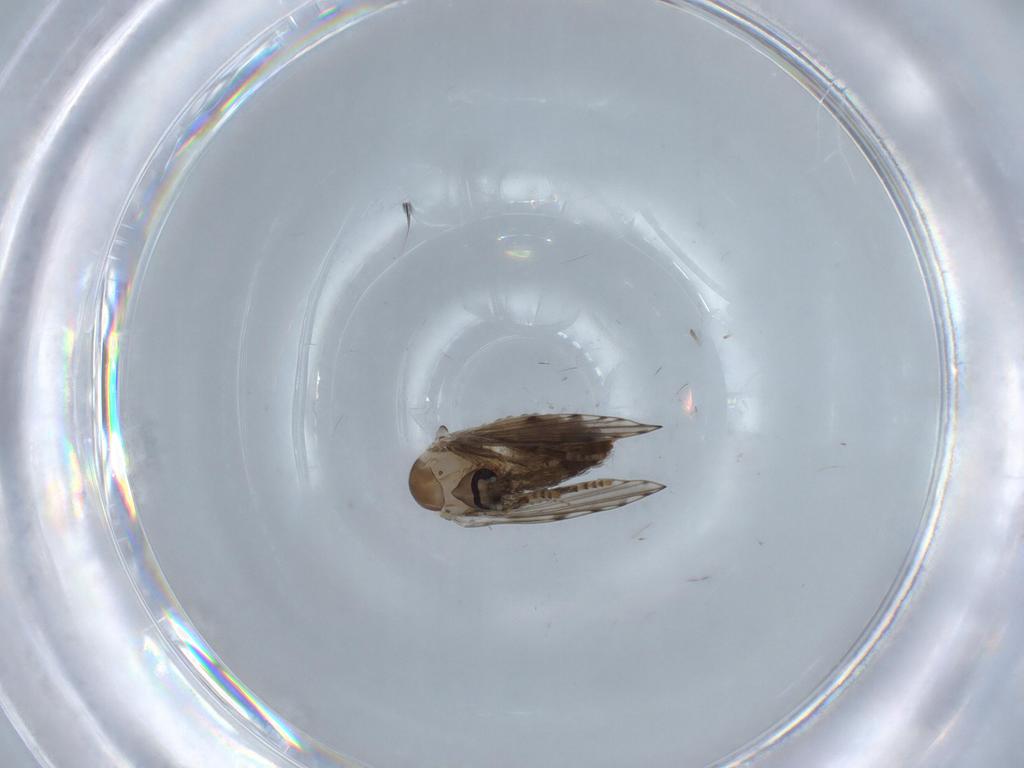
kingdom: Animalia
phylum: Arthropoda
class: Insecta
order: Diptera
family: Psychodidae
